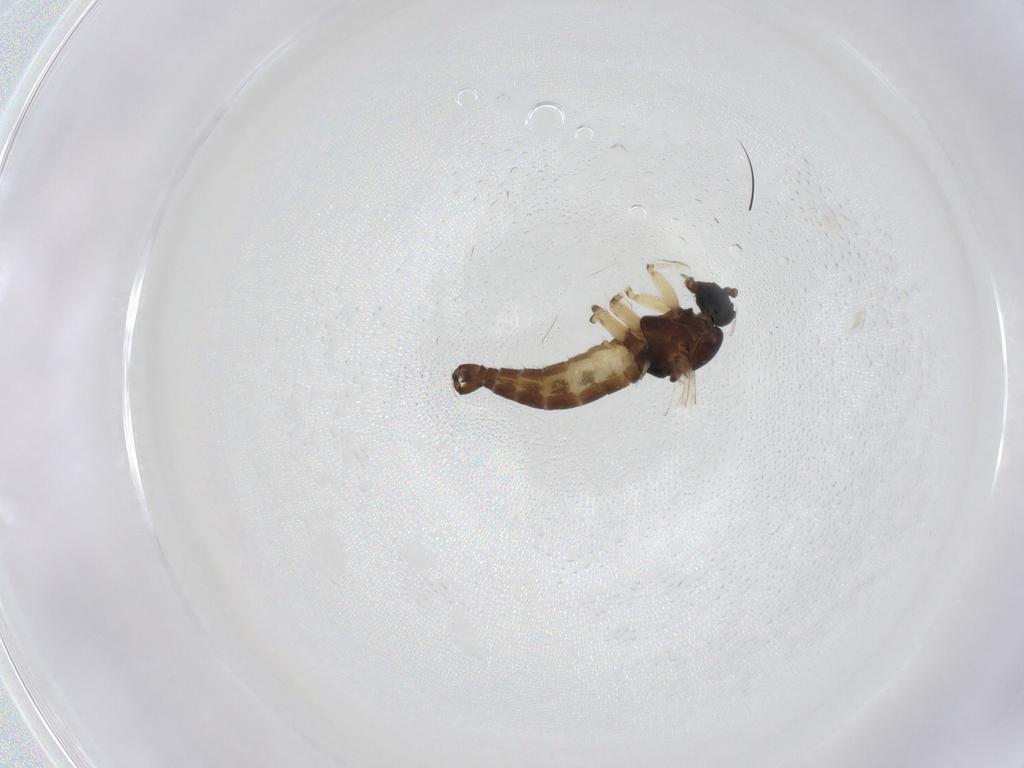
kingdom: Animalia
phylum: Arthropoda
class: Insecta
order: Diptera
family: Sciaridae
